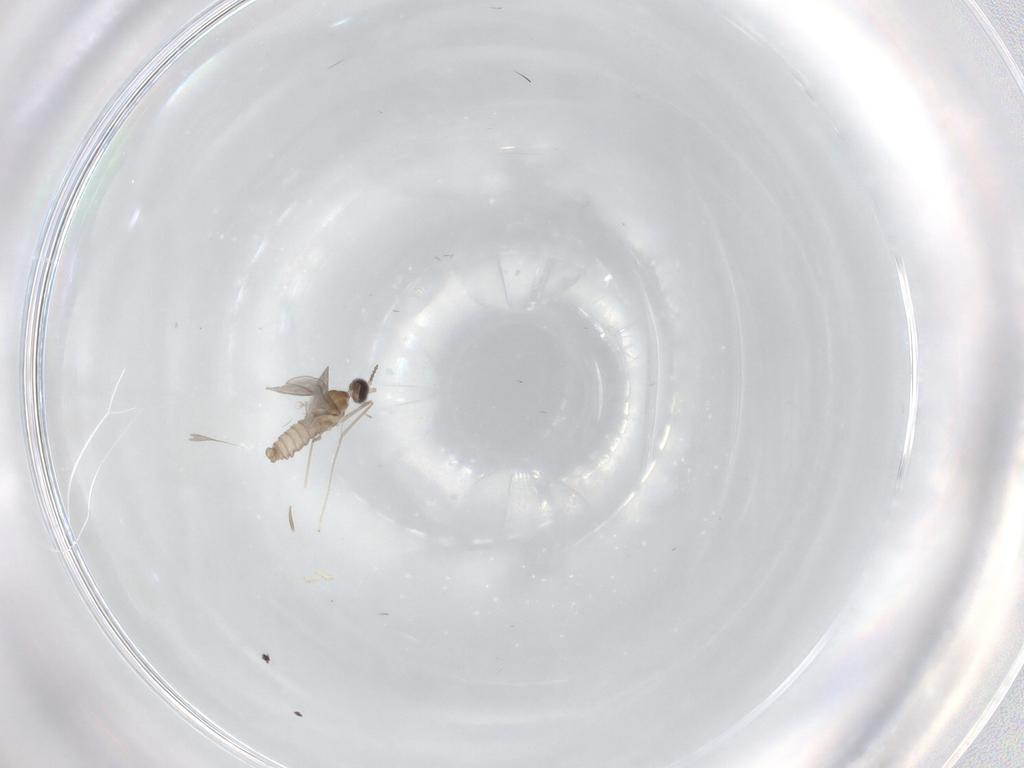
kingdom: Animalia
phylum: Arthropoda
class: Insecta
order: Diptera
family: Cecidomyiidae
